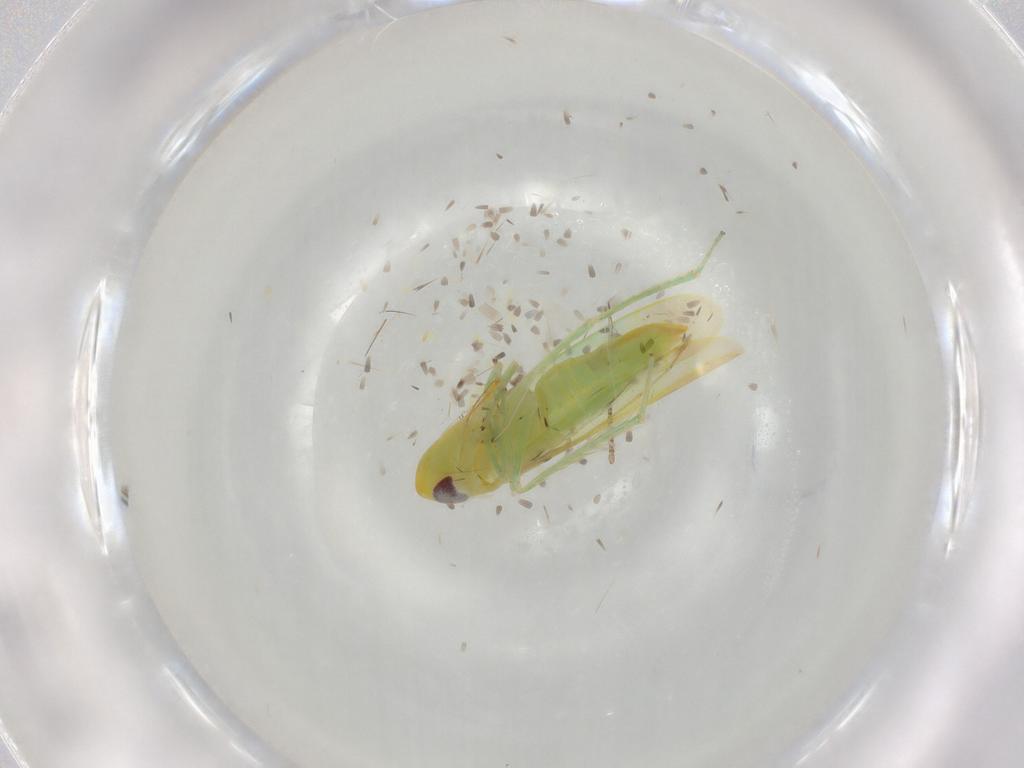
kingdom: Animalia
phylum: Arthropoda
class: Insecta
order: Hemiptera
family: Cicadellidae
